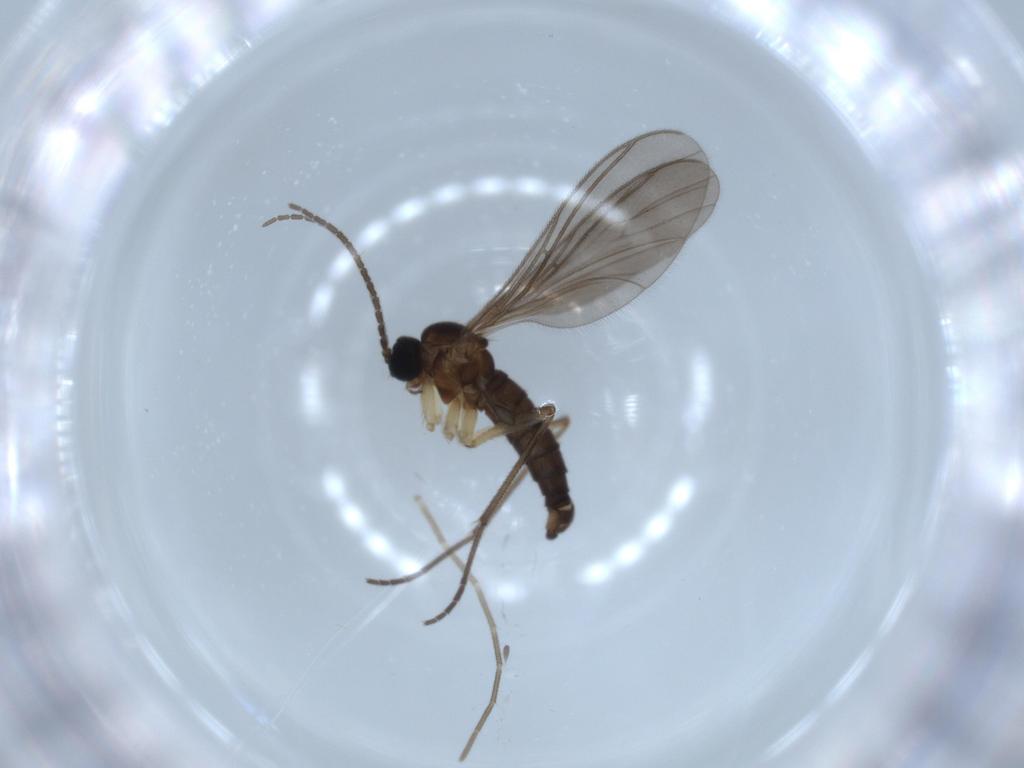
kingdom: Animalia
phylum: Arthropoda
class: Insecta
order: Diptera
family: Sciaridae
